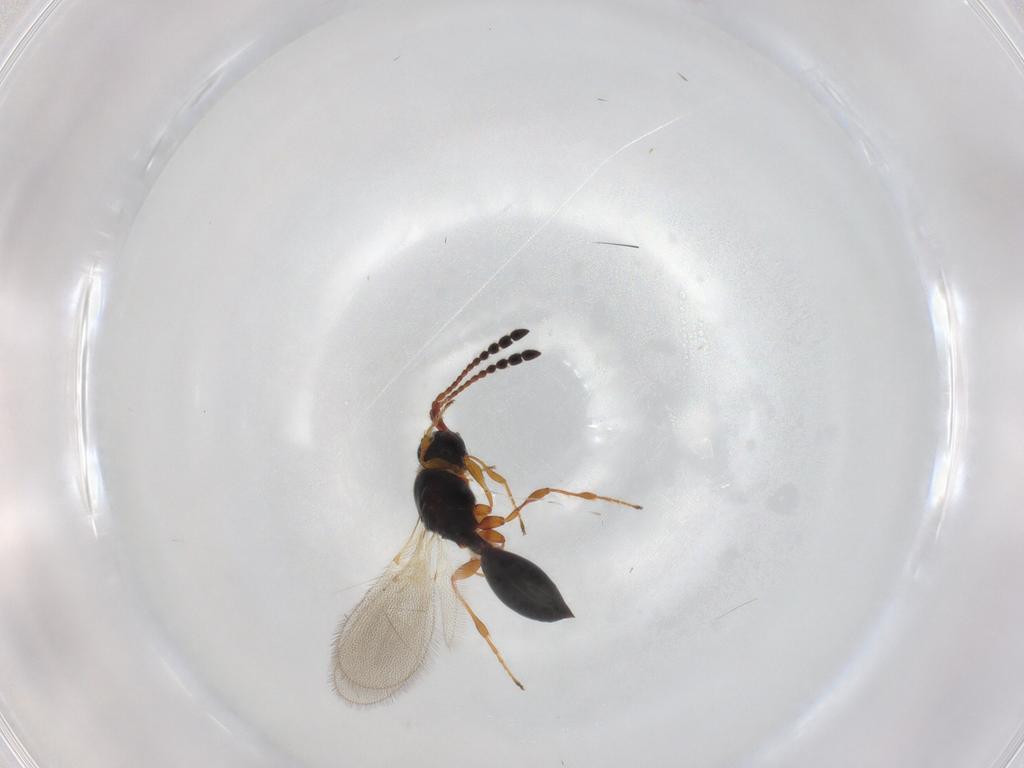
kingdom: Animalia
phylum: Arthropoda
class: Insecta
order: Hymenoptera
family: Diapriidae
